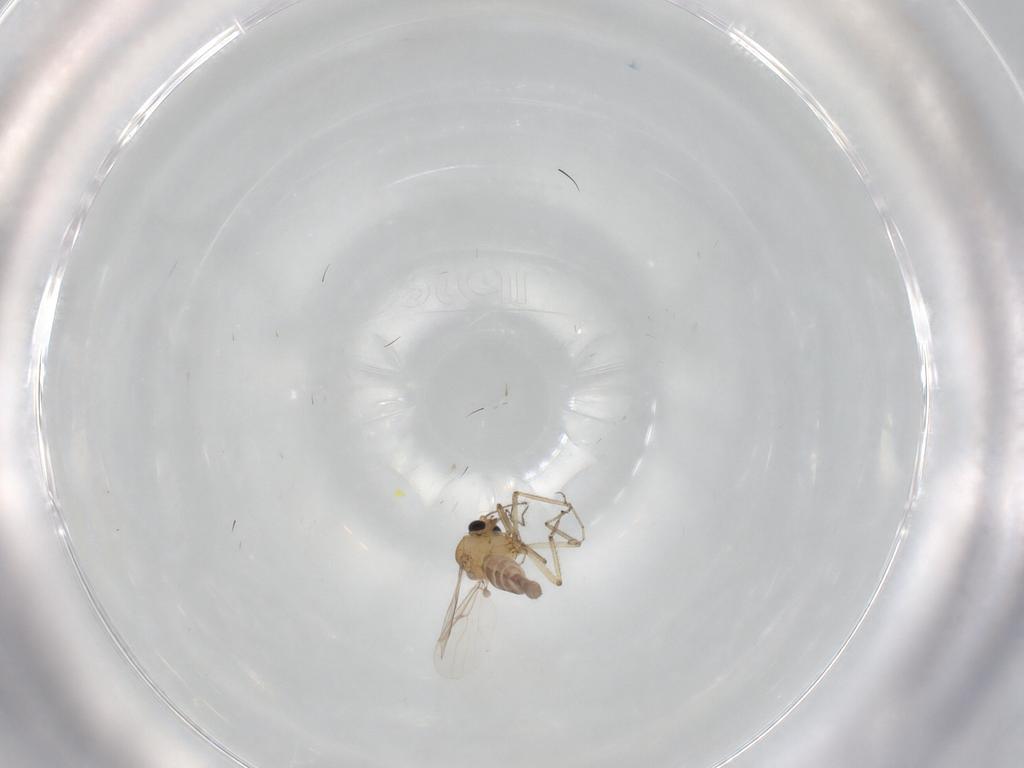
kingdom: Animalia
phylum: Arthropoda
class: Insecta
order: Diptera
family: Ceratopogonidae
